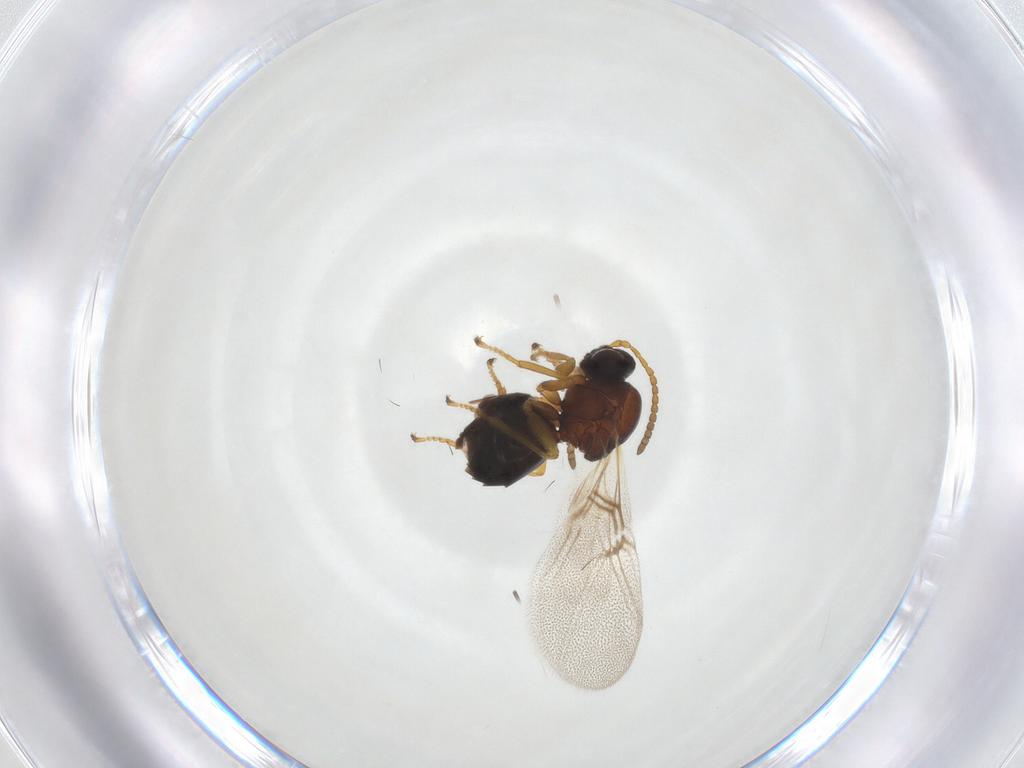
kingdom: Animalia
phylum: Arthropoda
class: Insecta
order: Hymenoptera
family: Cynipidae
